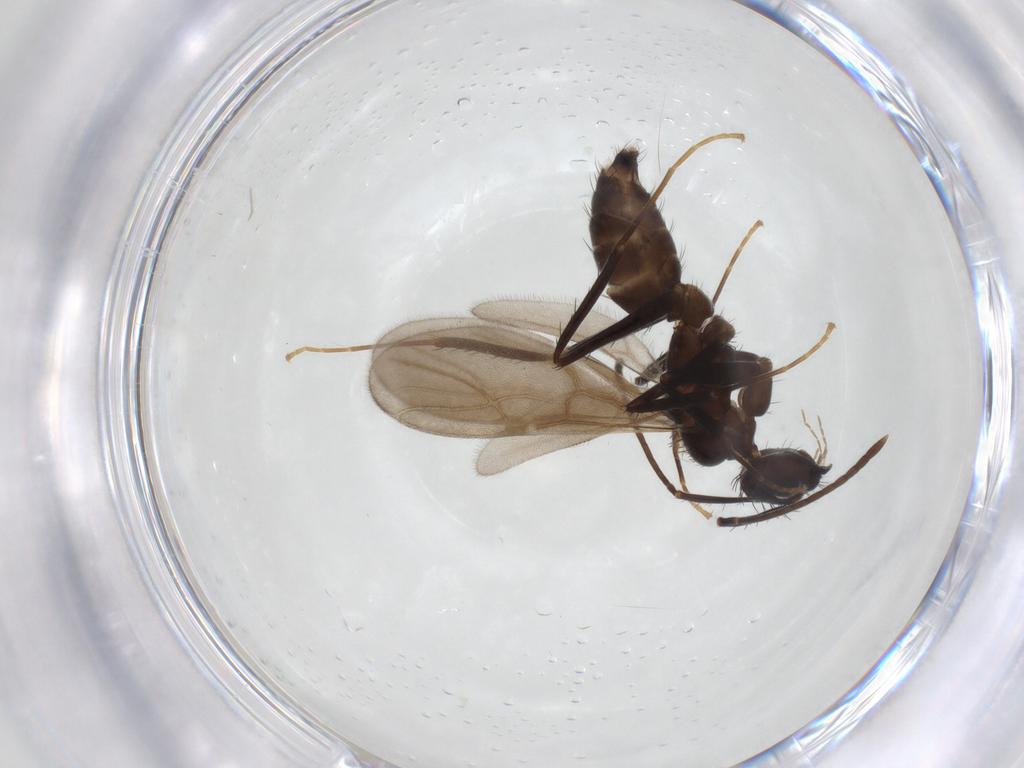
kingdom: Animalia
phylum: Arthropoda
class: Insecta
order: Hymenoptera
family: Formicidae
